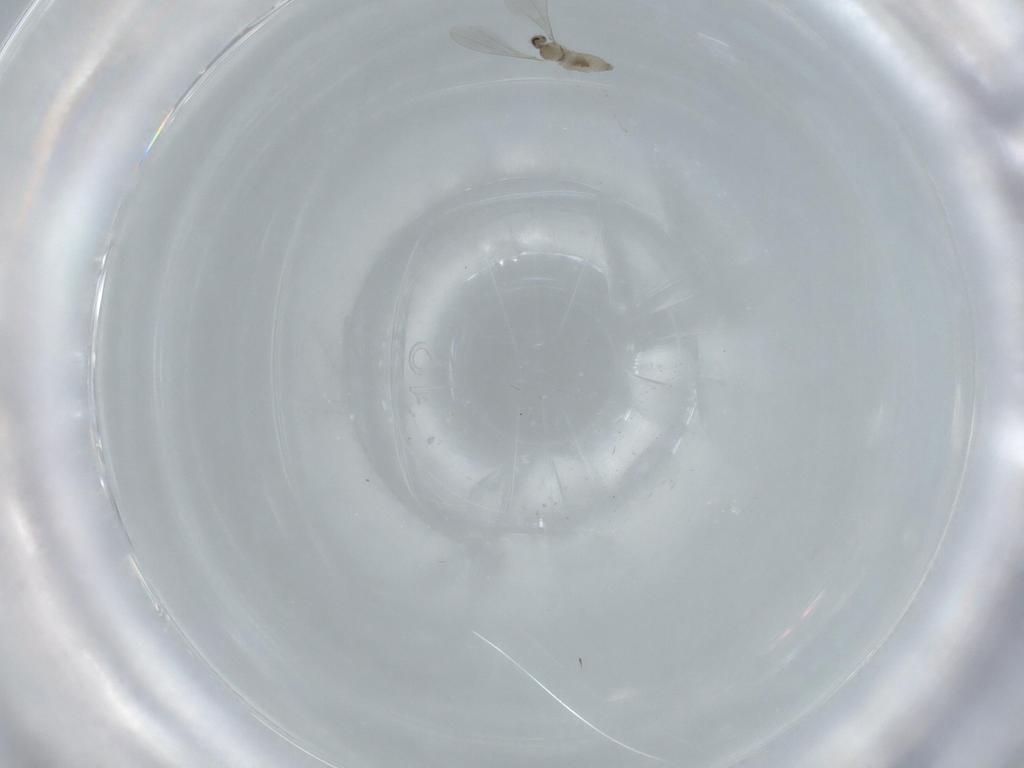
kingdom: Animalia
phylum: Arthropoda
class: Insecta
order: Diptera
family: Cecidomyiidae
